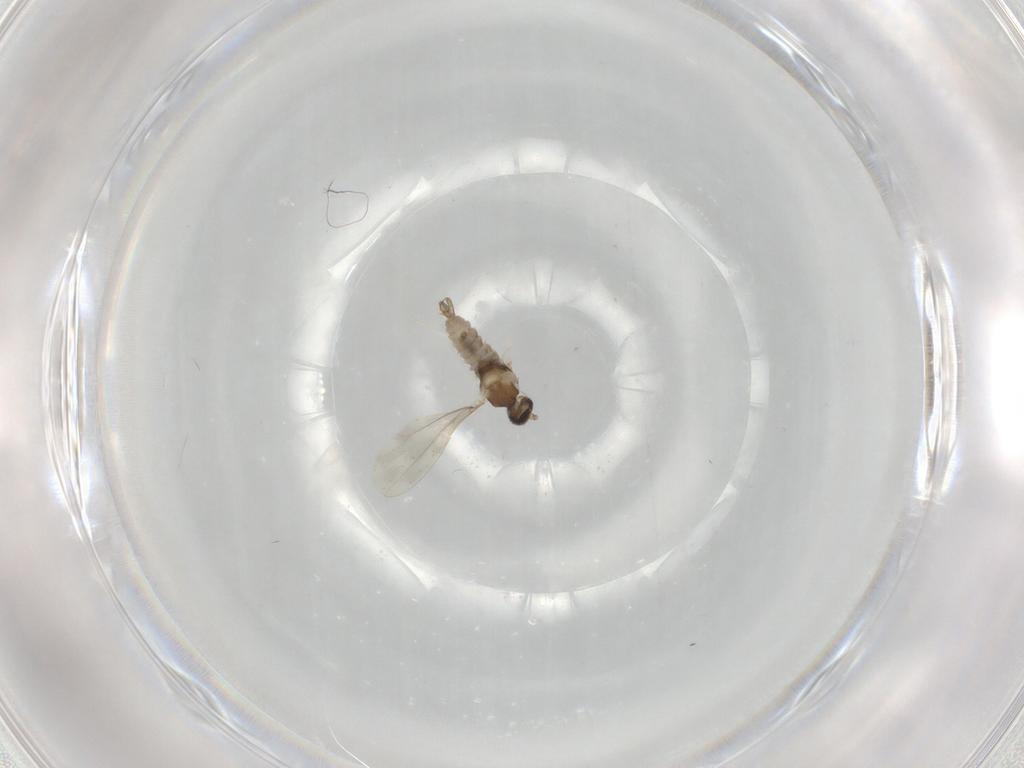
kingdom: Animalia
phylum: Arthropoda
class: Insecta
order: Diptera
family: Cecidomyiidae
